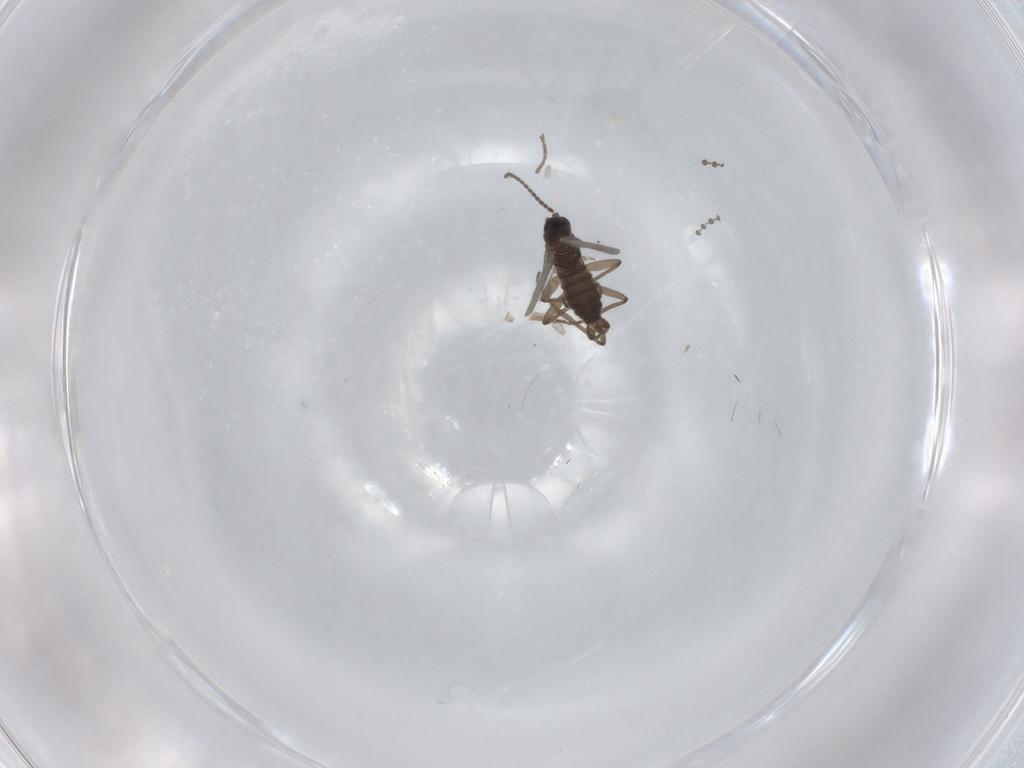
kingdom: Animalia
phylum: Arthropoda
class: Insecta
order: Diptera
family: Sciaridae
